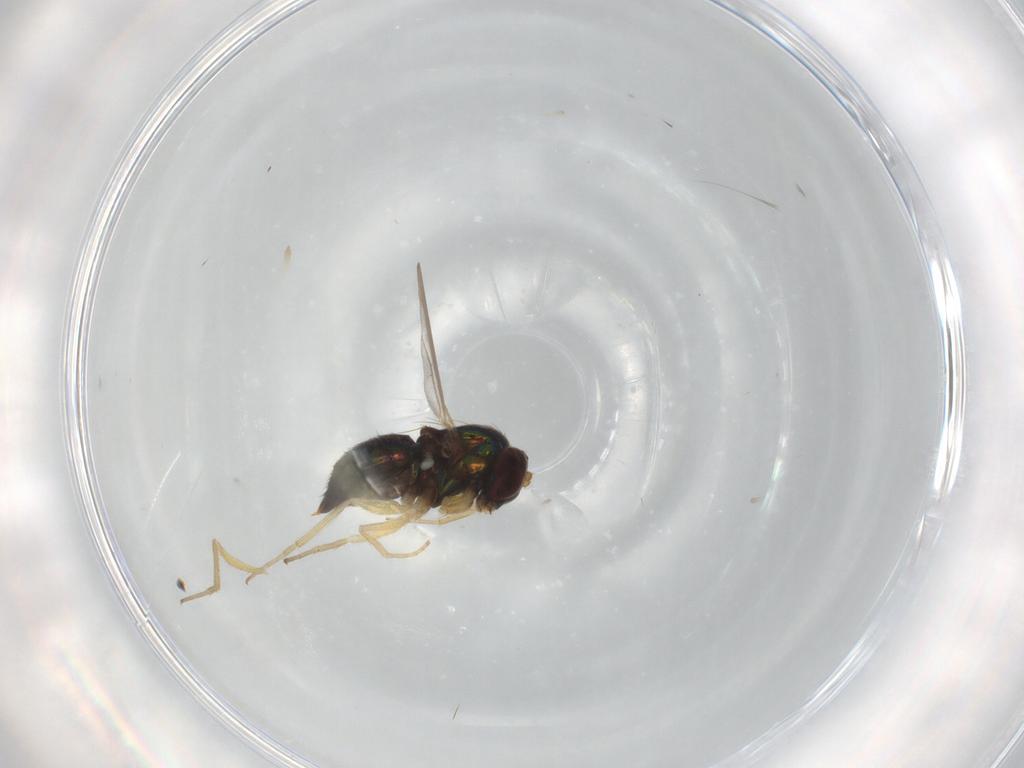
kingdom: Animalia
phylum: Arthropoda
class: Insecta
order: Diptera
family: Dolichopodidae
